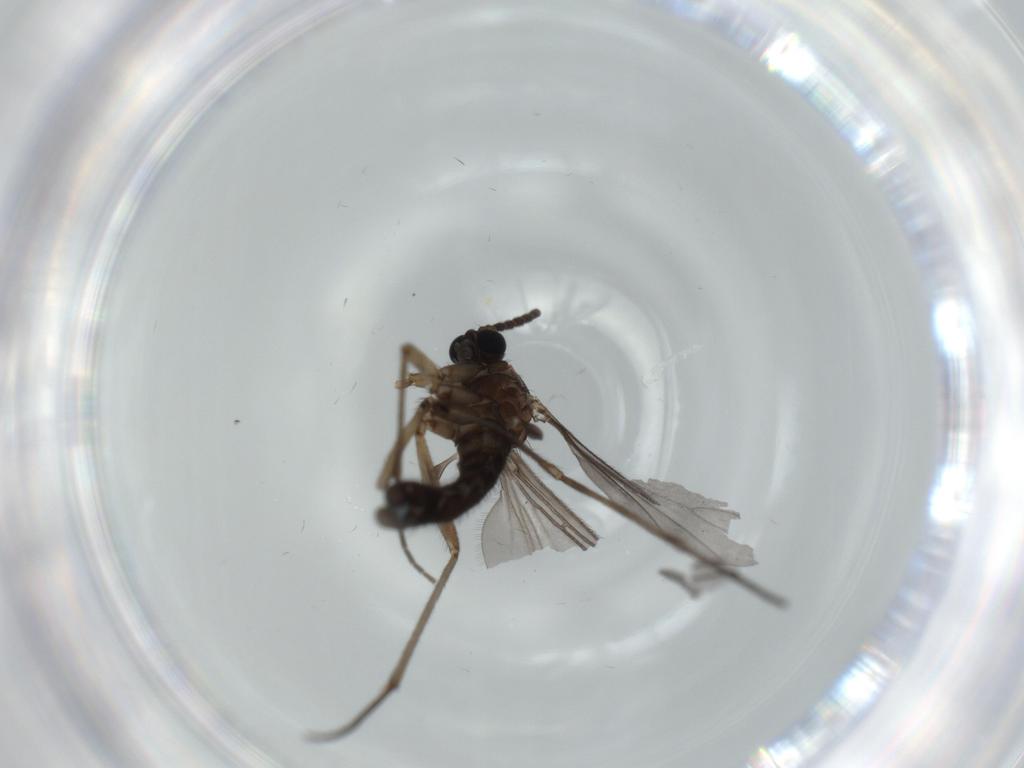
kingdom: Animalia
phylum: Arthropoda
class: Insecta
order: Diptera
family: Sciaridae
